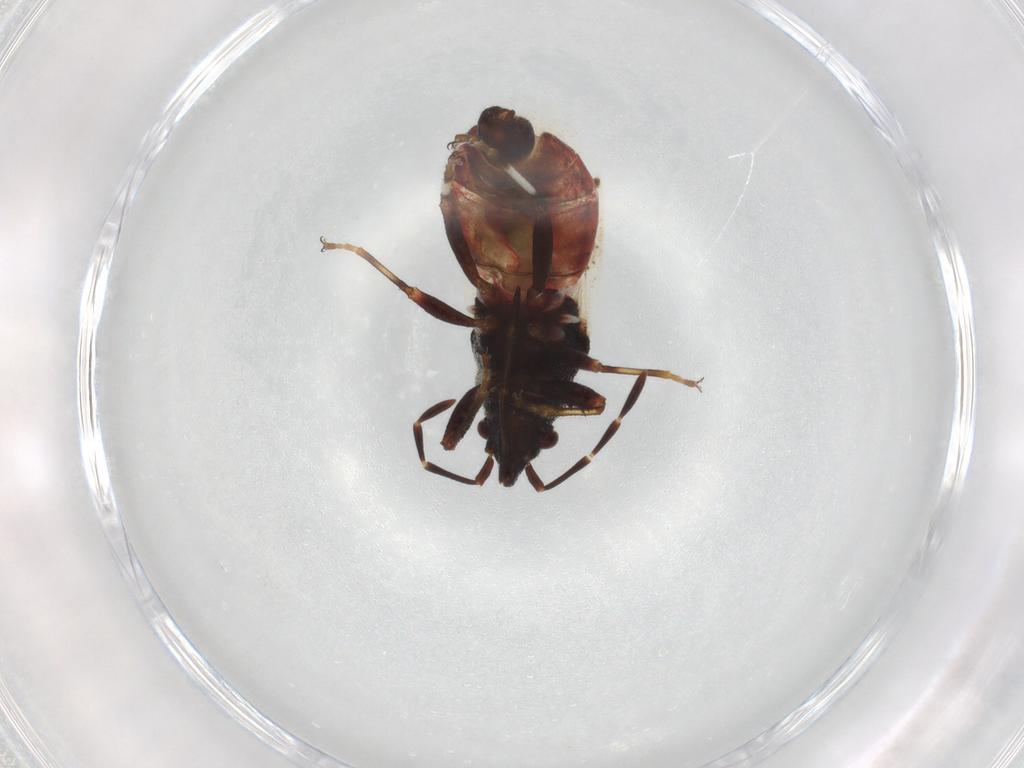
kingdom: Animalia
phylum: Arthropoda
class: Insecta
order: Hemiptera
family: Oxycarenidae
